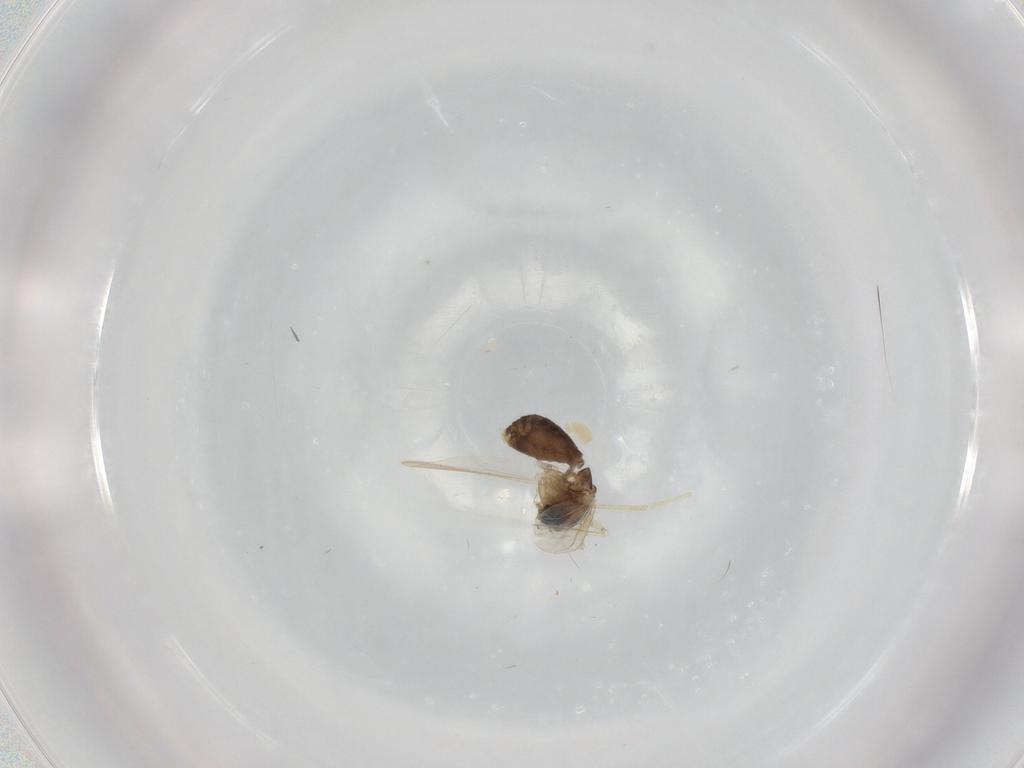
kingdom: Animalia
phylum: Arthropoda
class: Insecta
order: Diptera
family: Chironomidae
